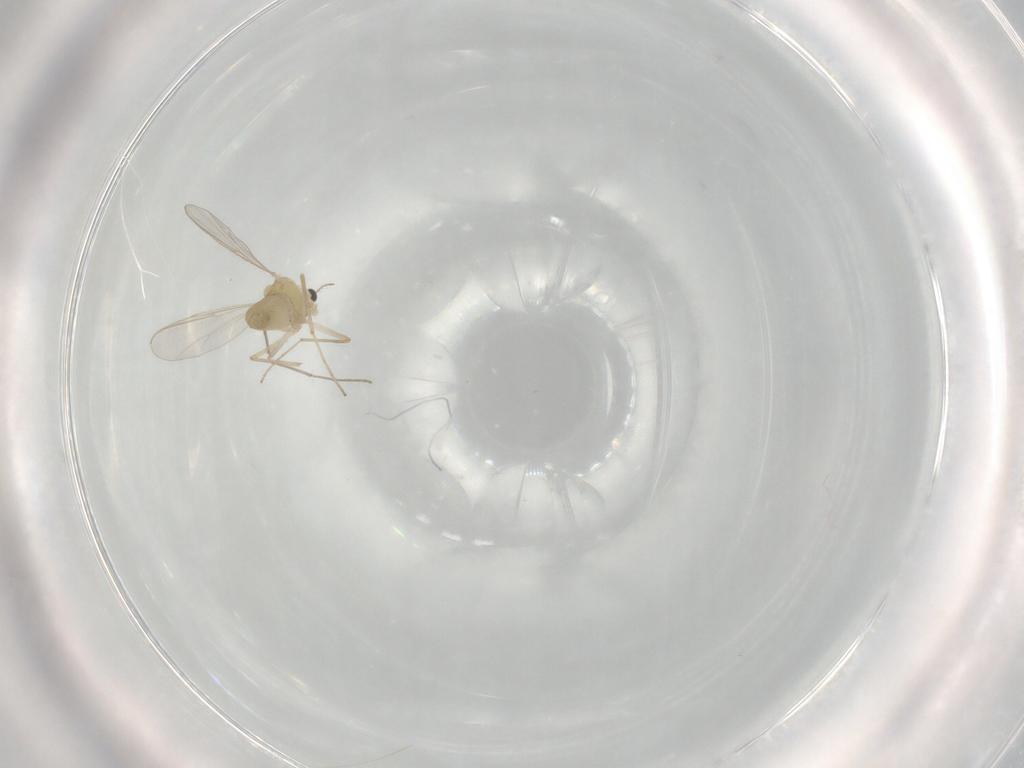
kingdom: Animalia
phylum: Arthropoda
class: Insecta
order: Diptera
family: Chironomidae
